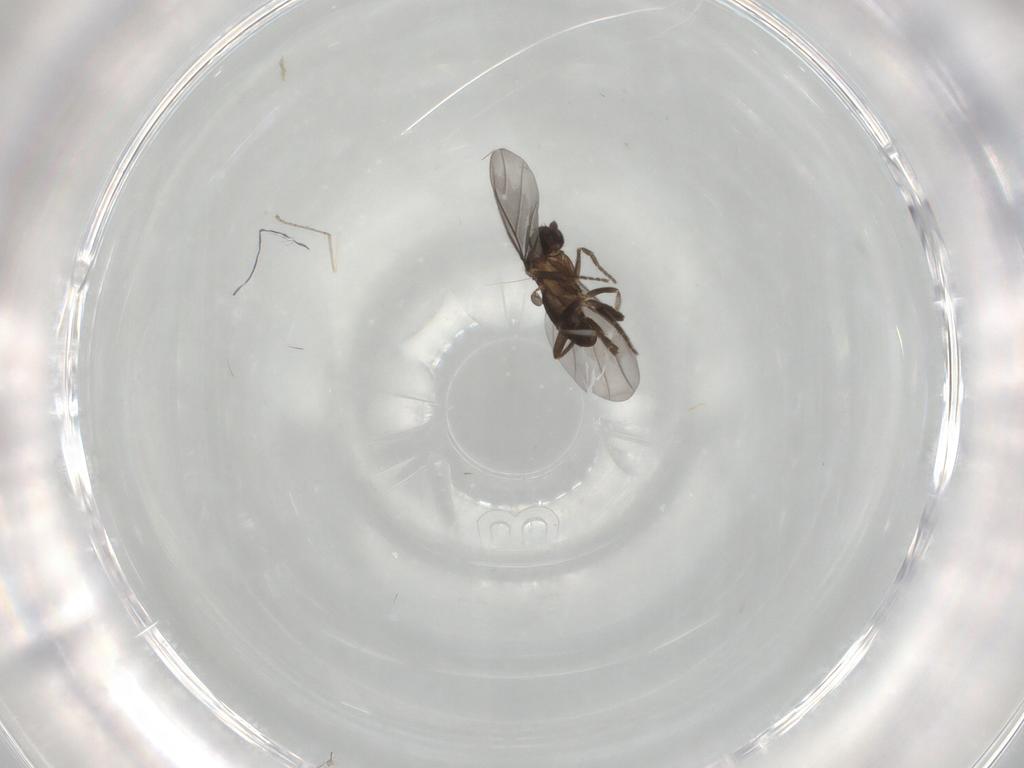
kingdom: Animalia
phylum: Arthropoda
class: Insecta
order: Diptera
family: Phoridae
